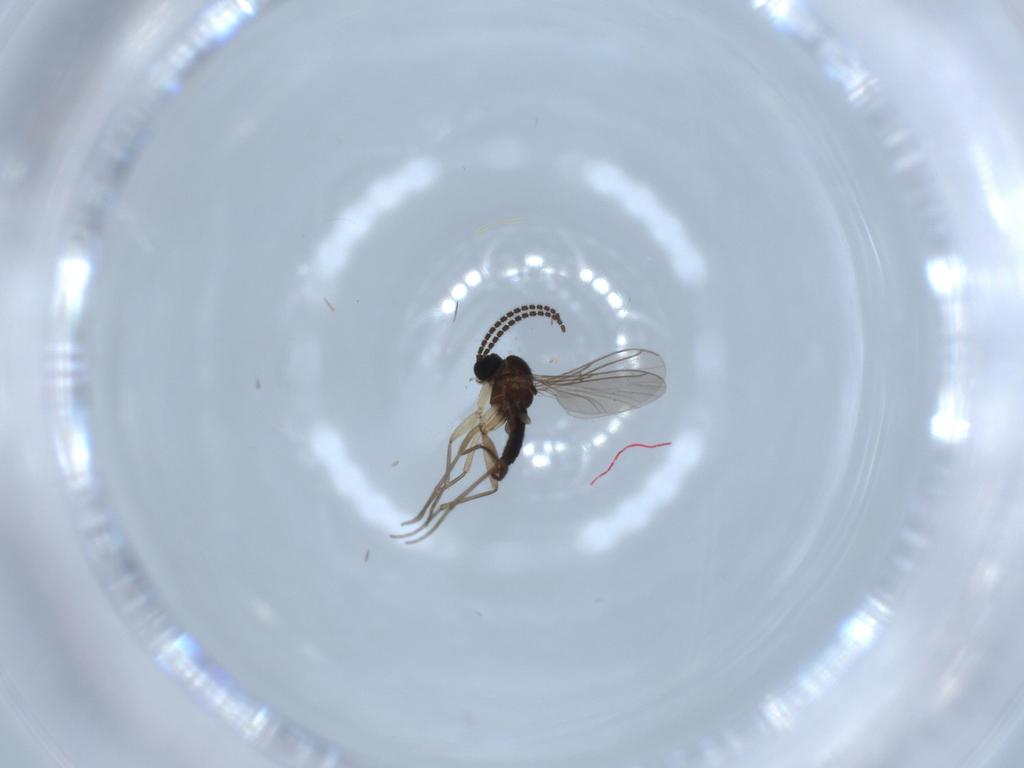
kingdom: Animalia
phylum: Arthropoda
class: Insecta
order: Diptera
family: Sciaridae
